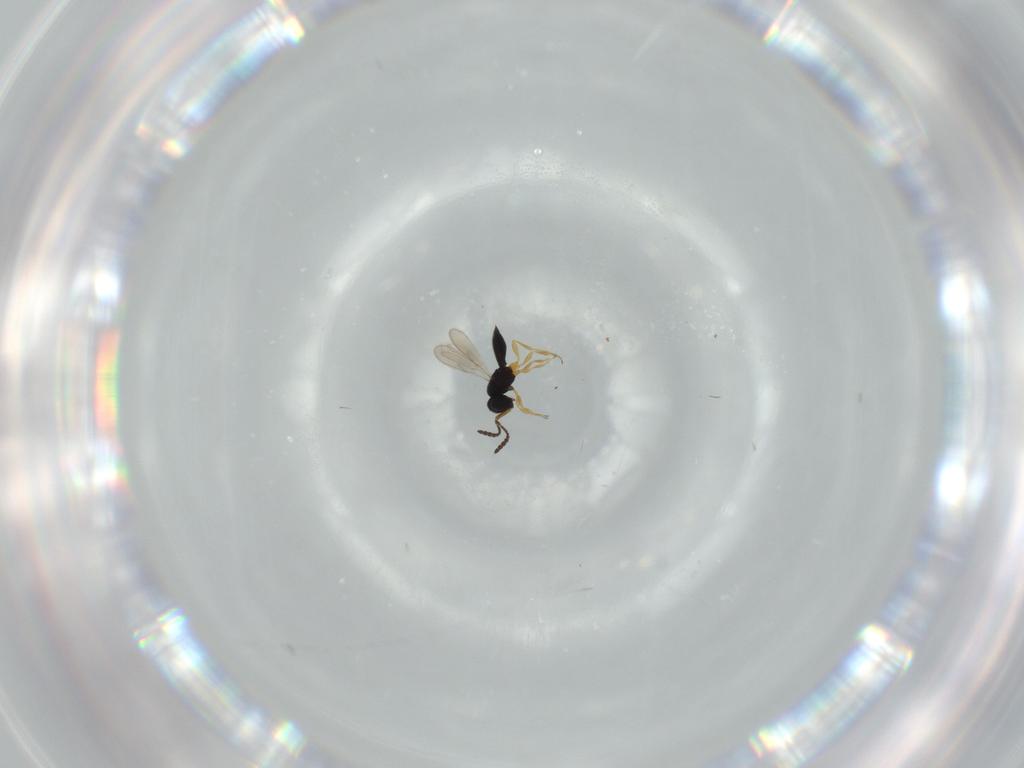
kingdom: Animalia
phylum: Arthropoda
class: Insecta
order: Hymenoptera
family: Scelionidae
